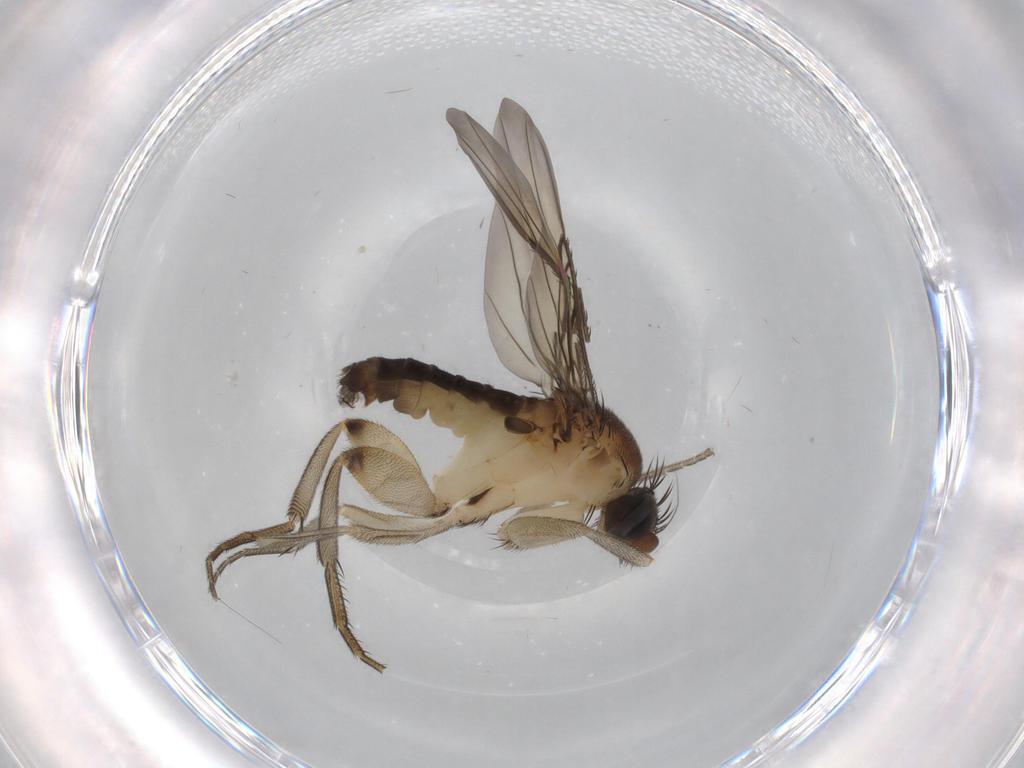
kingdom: Animalia
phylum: Arthropoda
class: Insecta
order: Diptera
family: Phoridae
